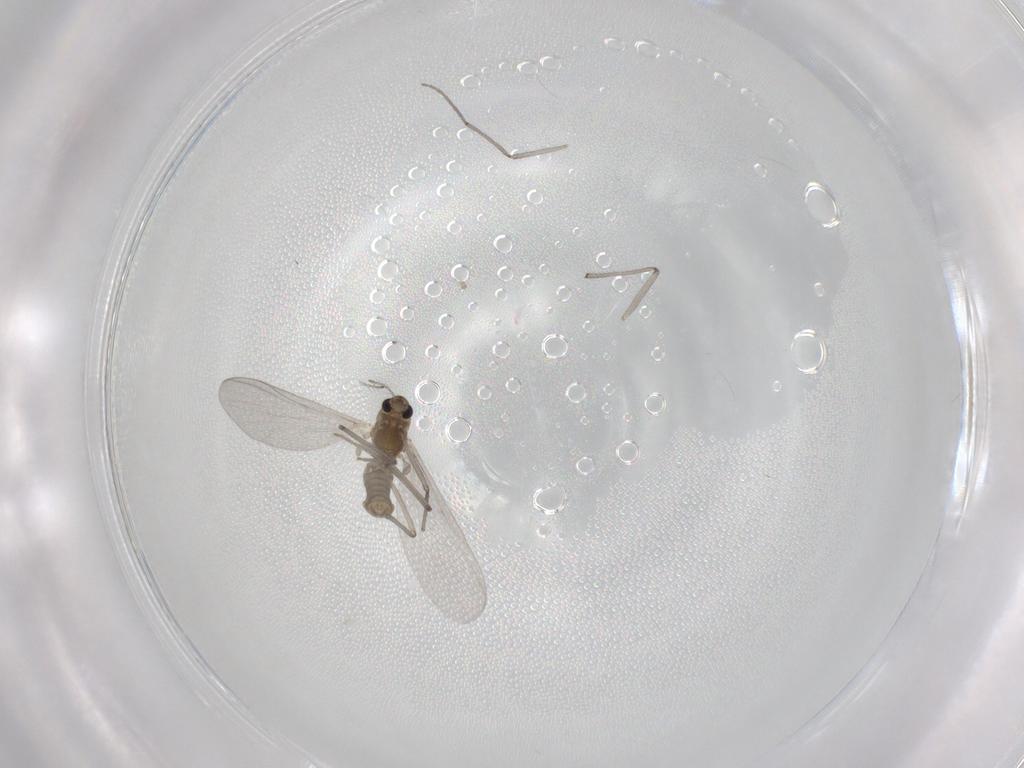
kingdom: Animalia
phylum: Arthropoda
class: Insecta
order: Diptera
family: Chironomidae
